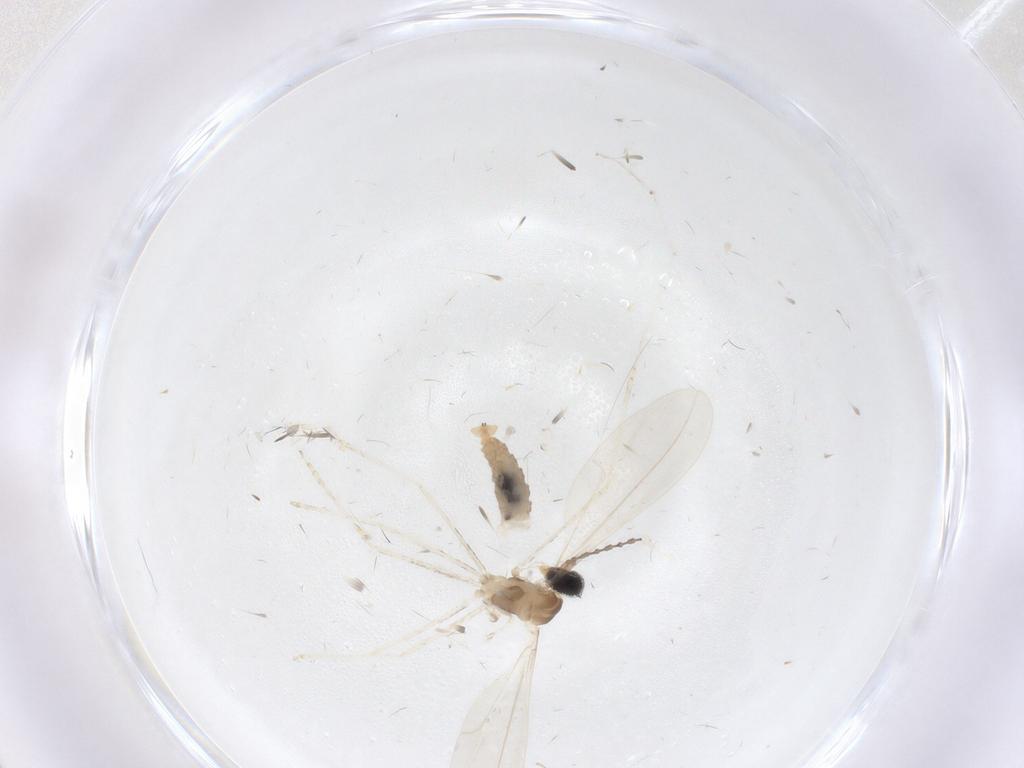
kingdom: Animalia
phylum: Arthropoda
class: Insecta
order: Diptera
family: Cecidomyiidae
